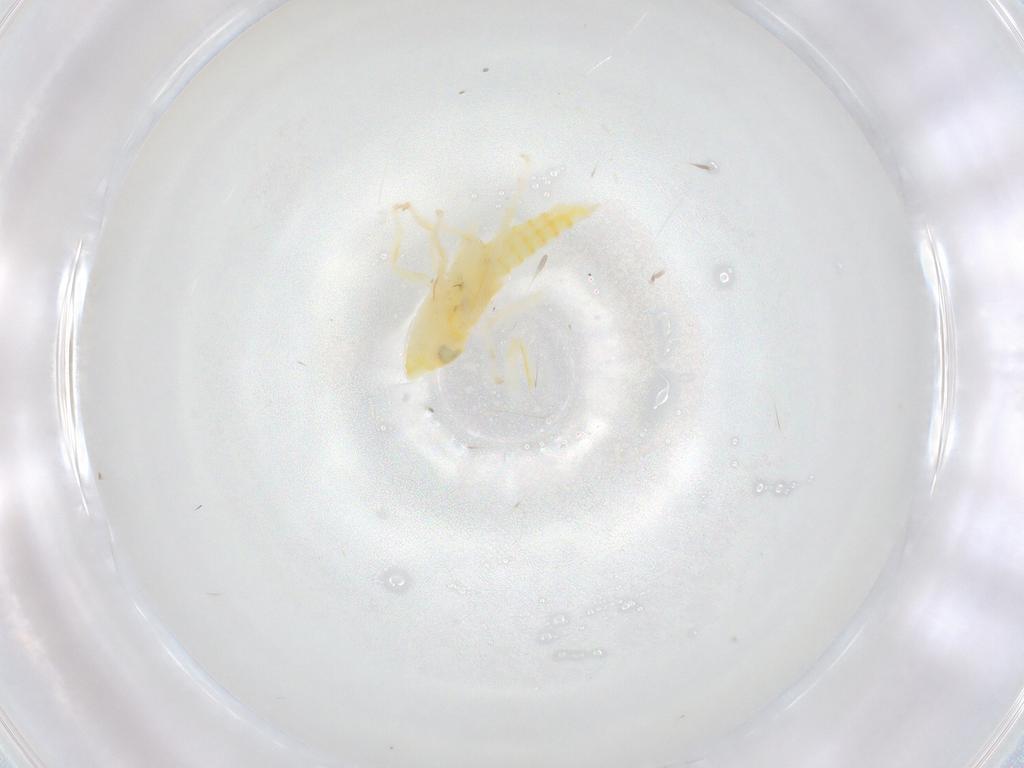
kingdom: Animalia
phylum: Arthropoda
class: Insecta
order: Hemiptera
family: Cicadellidae
